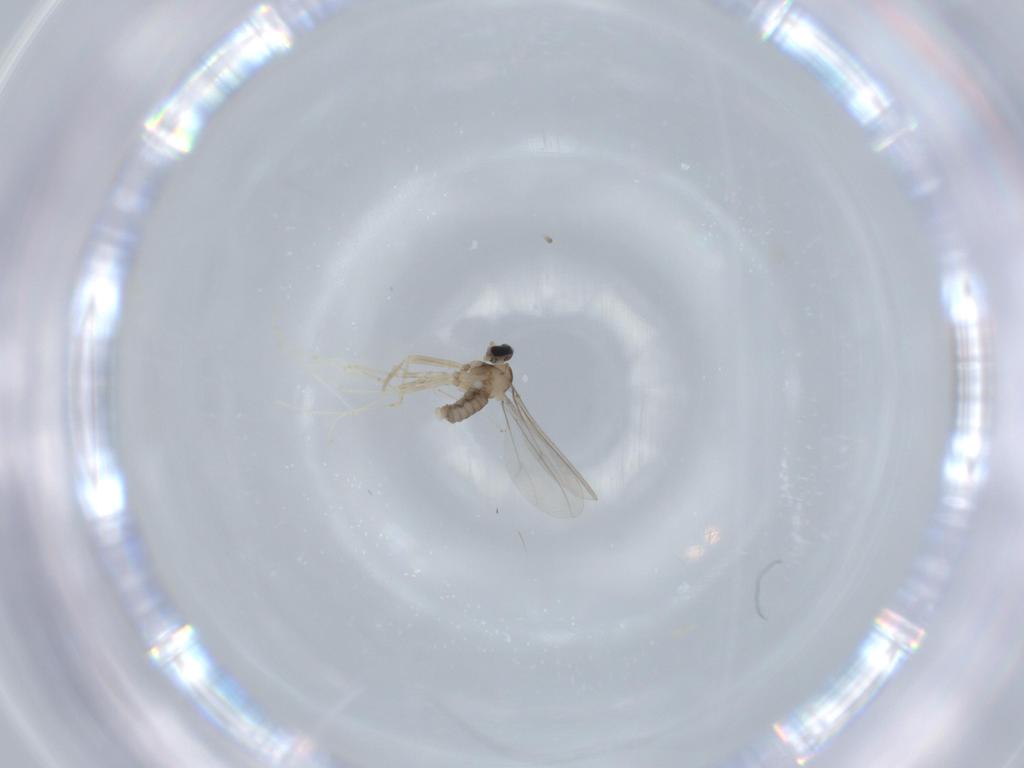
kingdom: Animalia
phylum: Arthropoda
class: Insecta
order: Diptera
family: Cecidomyiidae
